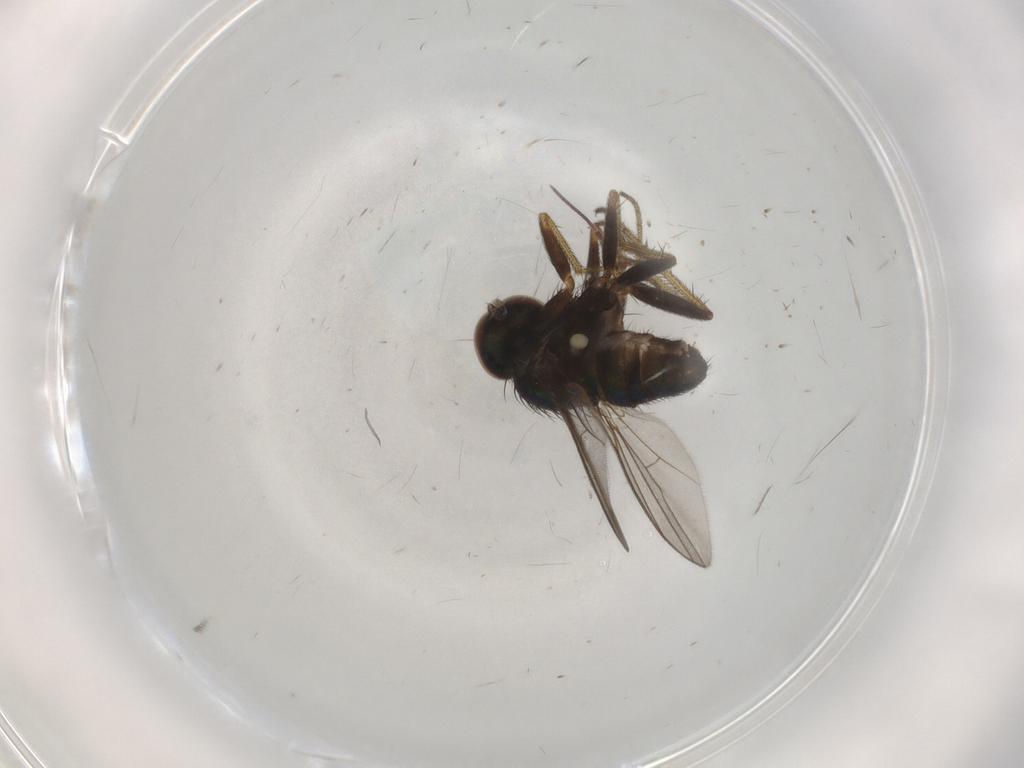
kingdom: Animalia
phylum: Arthropoda
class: Insecta
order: Diptera
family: Dolichopodidae
